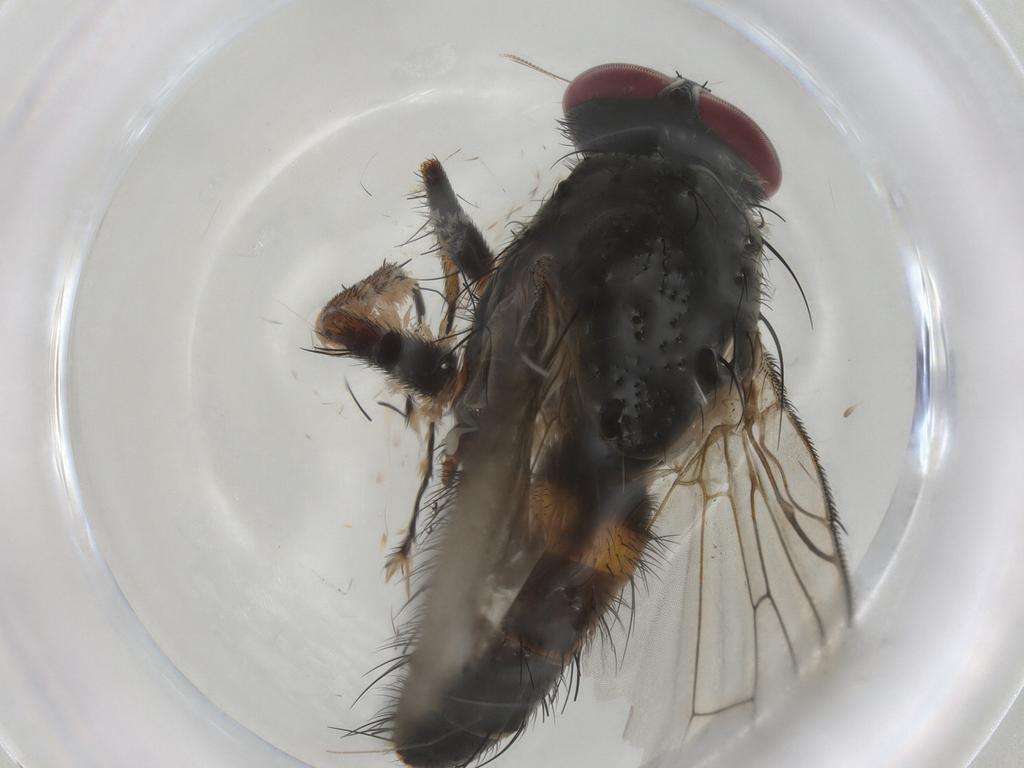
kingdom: Animalia
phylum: Arthropoda
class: Insecta
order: Diptera
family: Muscidae
